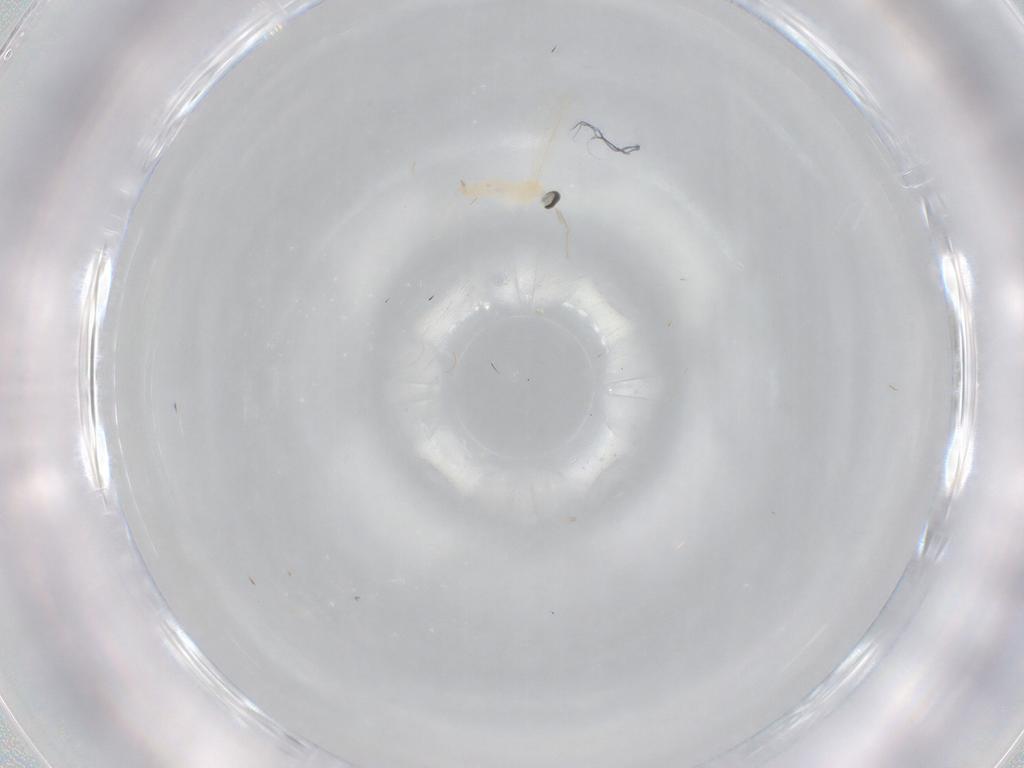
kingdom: Animalia
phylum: Arthropoda
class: Insecta
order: Diptera
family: Cecidomyiidae
